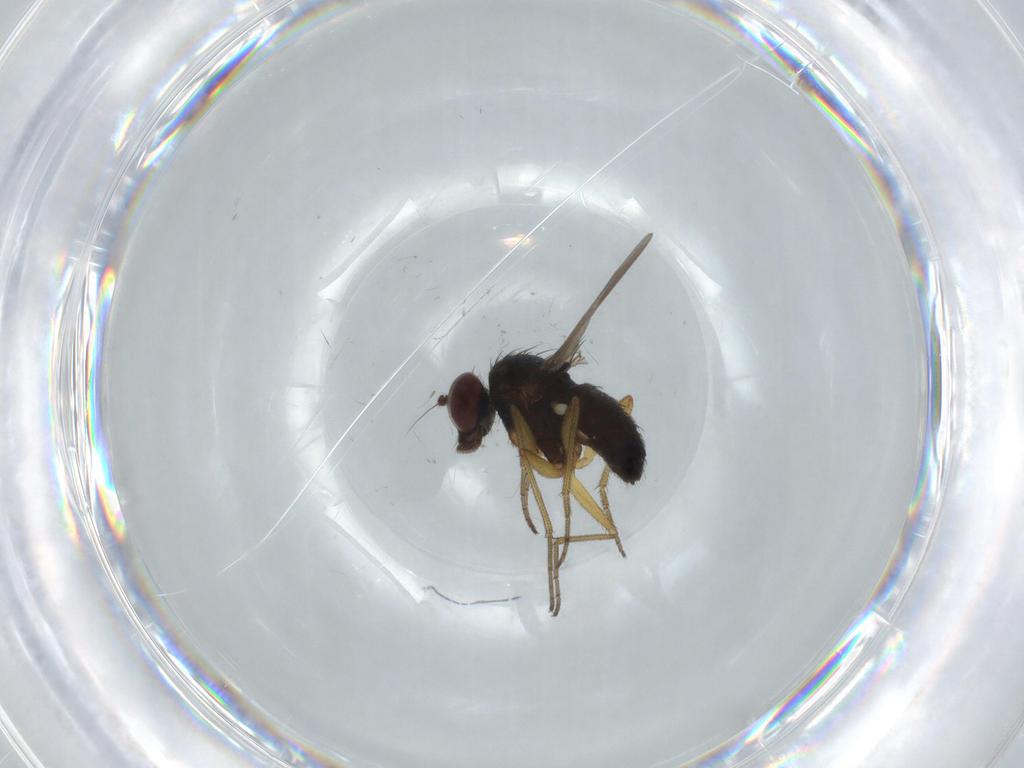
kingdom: Animalia
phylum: Arthropoda
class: Insecta
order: Diptera
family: Dolichopodidae
